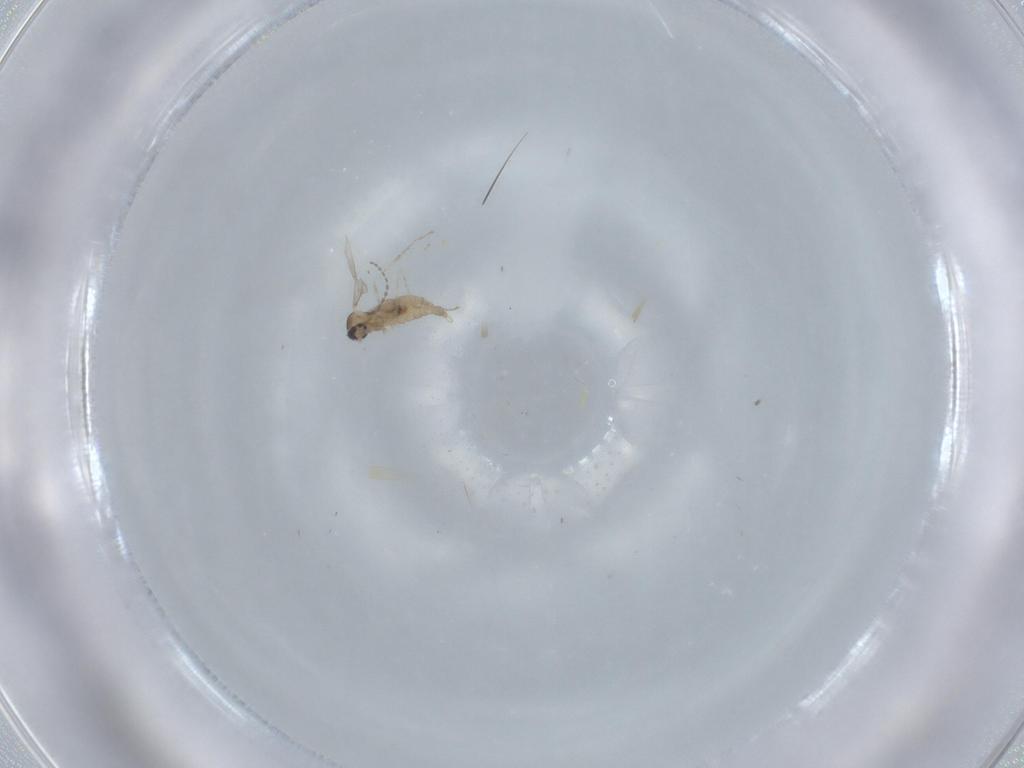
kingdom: Animalia
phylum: Arthropoda
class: Insecta
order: Diptera
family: Cecidomyiidae
